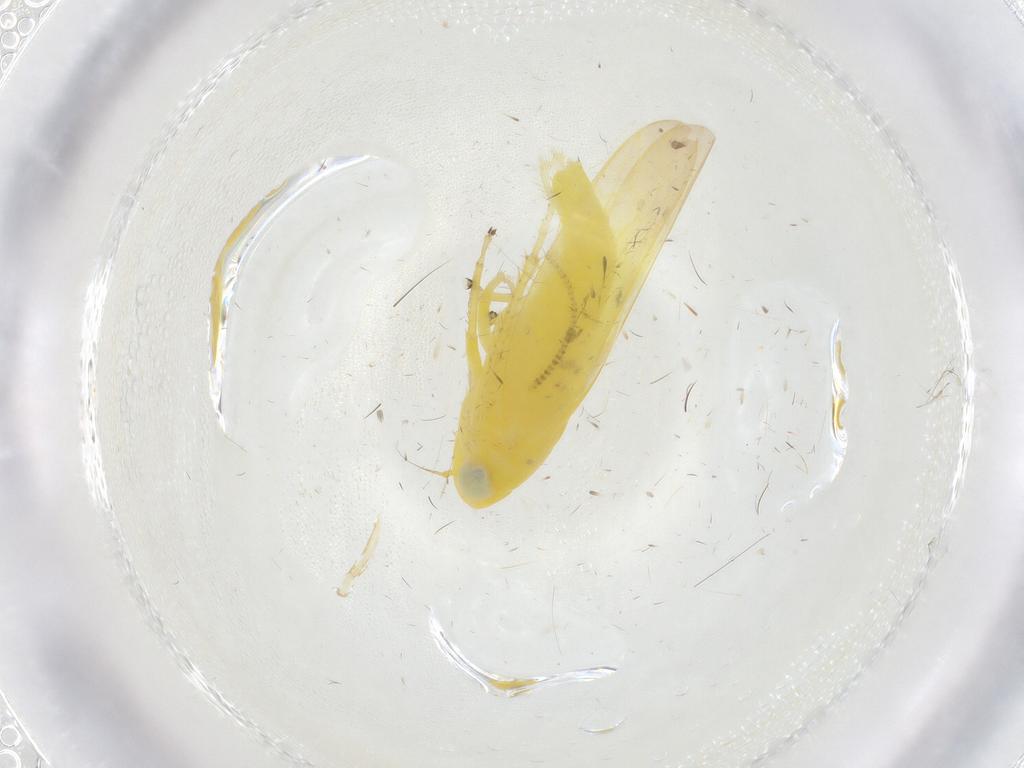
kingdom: Animalia
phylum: Arthropoda
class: Insecta
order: Hemiptera
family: Cicadellidae
